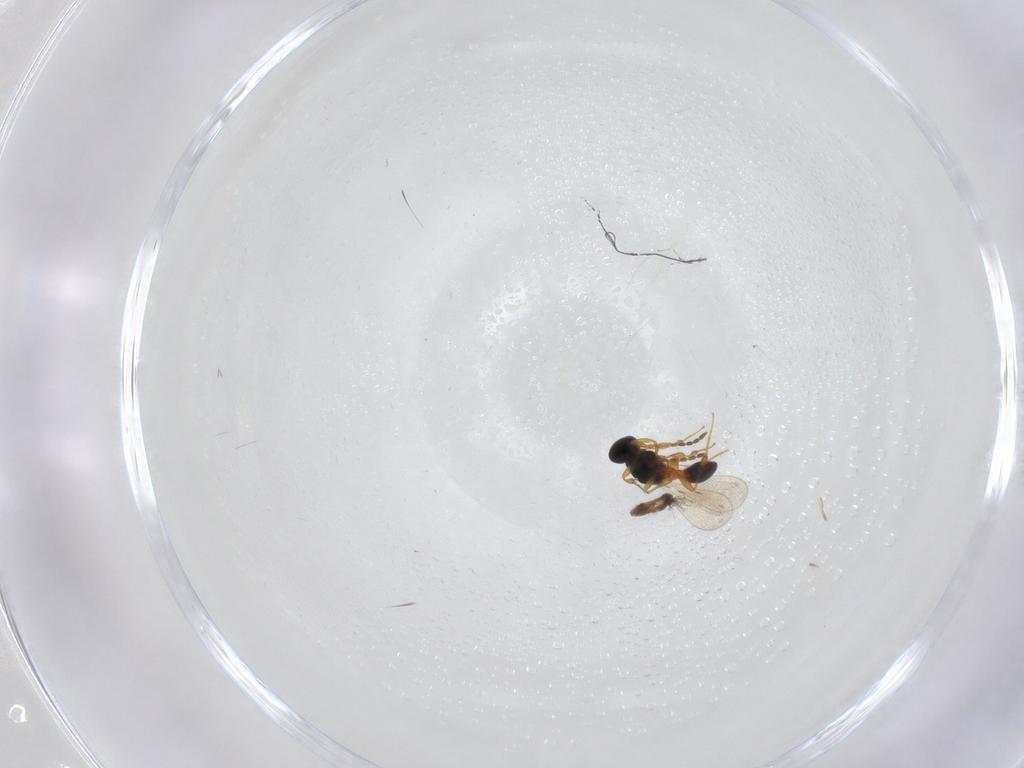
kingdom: Animalia
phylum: Arthropoda
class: Insecta
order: Hymenoptera
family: Platygastridae
